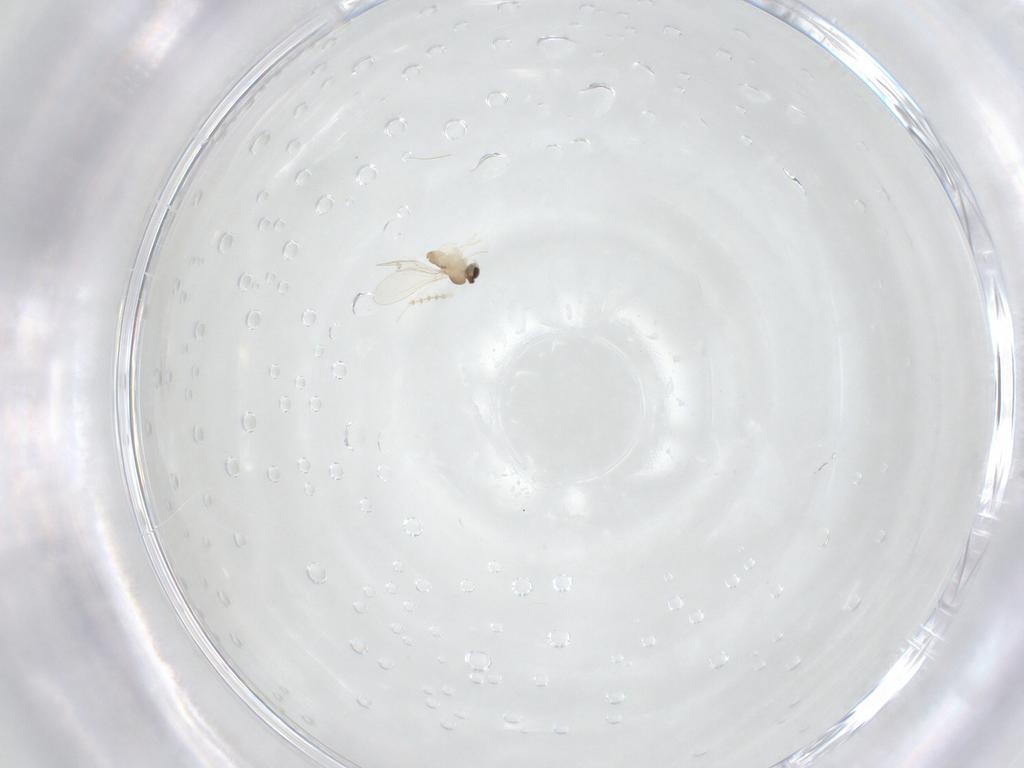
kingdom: Animalia
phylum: Arthropoda
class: Insecta
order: Diptera
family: Cecidomyiidae
